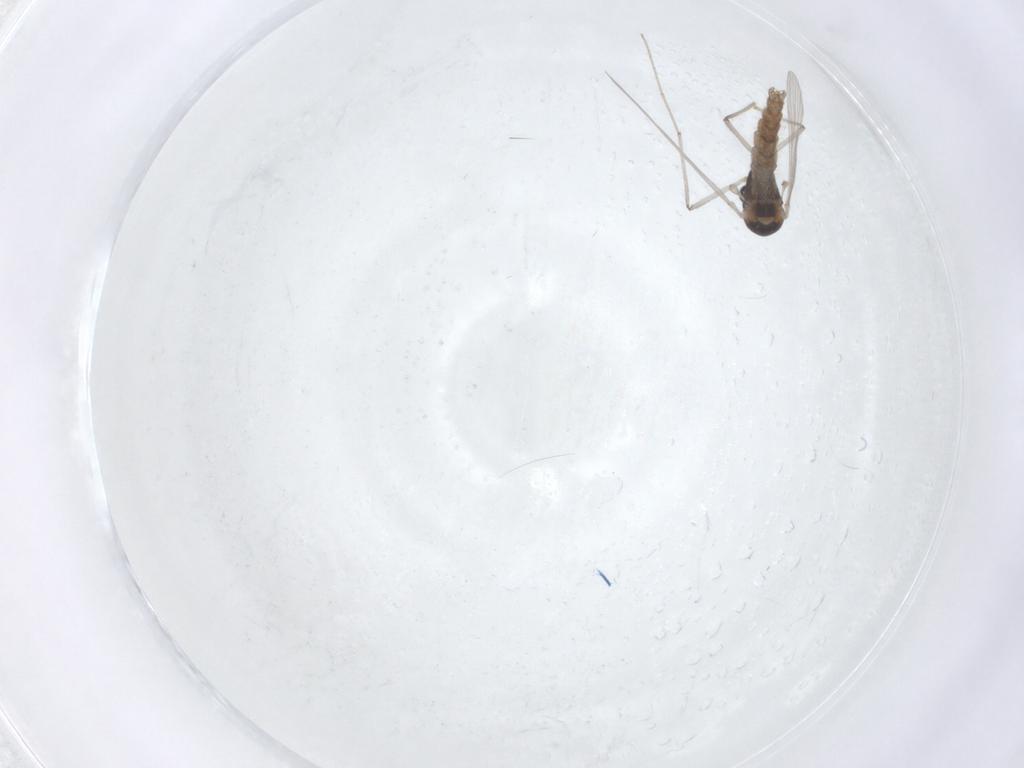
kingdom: Animalia
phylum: Arthropoda
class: Insecta
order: Diptera
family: Chironomidae
